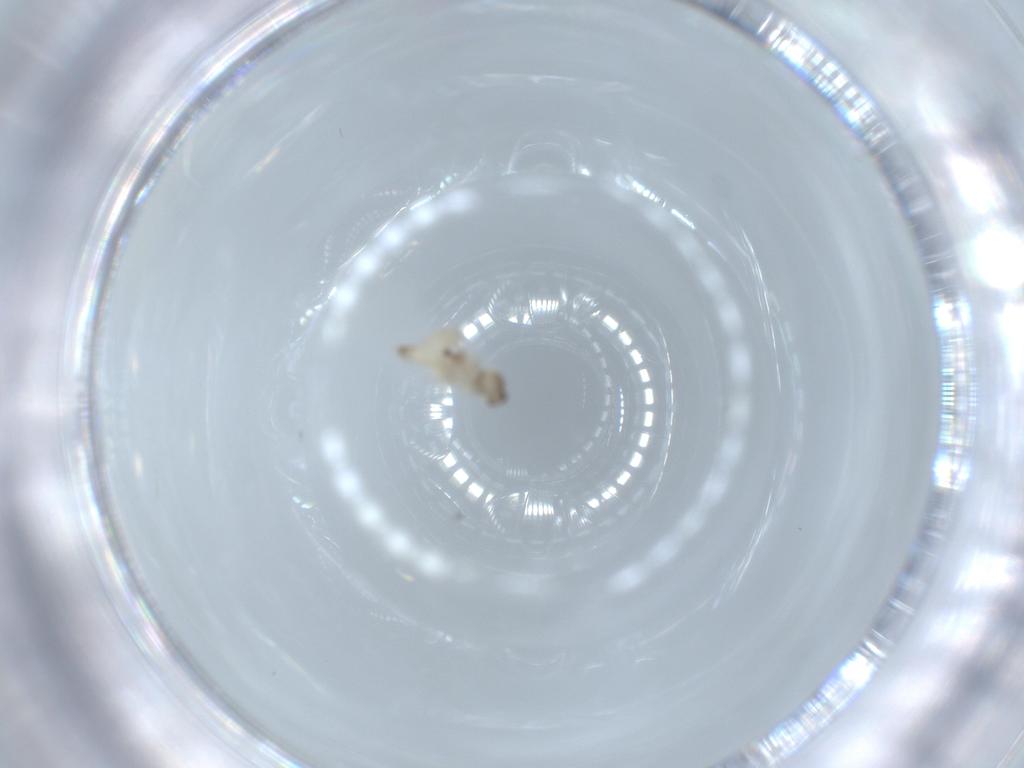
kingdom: Animalia
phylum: Arthropoda
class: Insecta
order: Diptera
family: Cecidomyiidae
